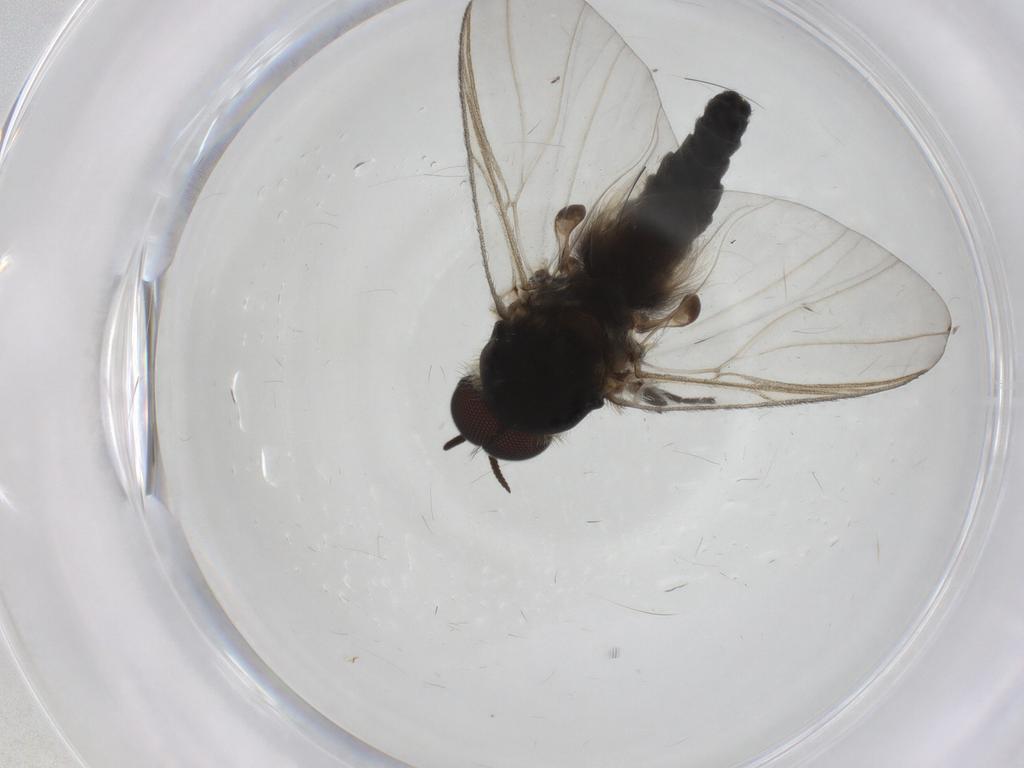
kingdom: Animalia
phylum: Arthropoda
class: Insecta
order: Diptera
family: Simuliidae
